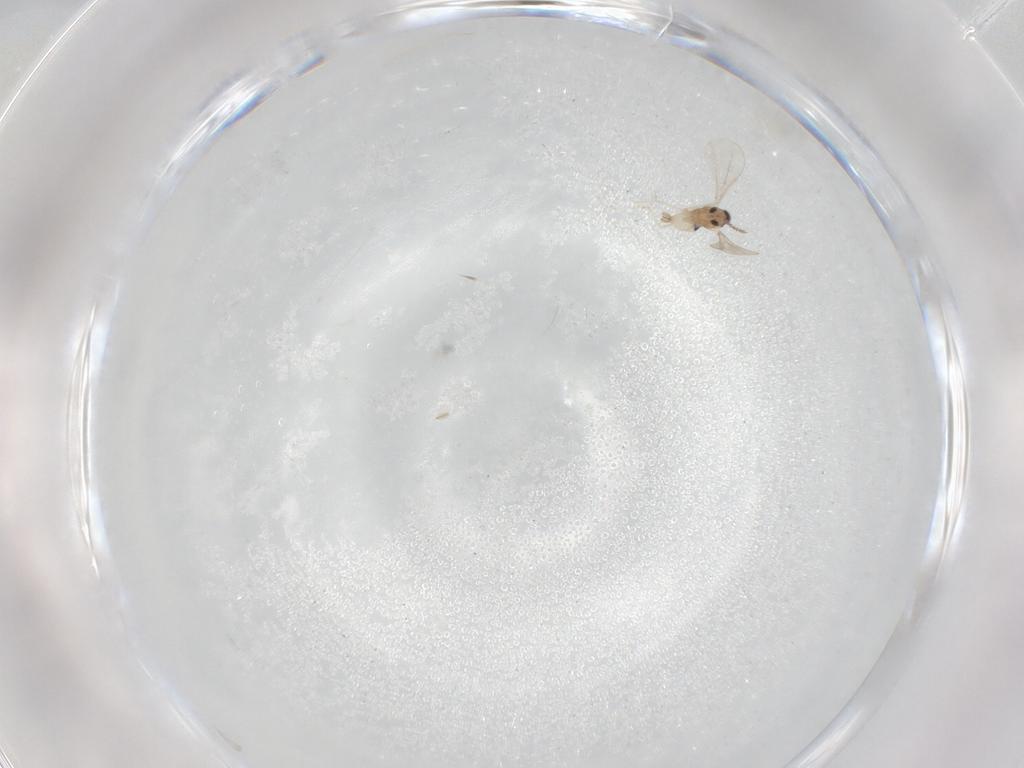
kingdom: Animalia
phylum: Arthropoda
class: Insecta
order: Diptera
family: Cecidomyiidae
